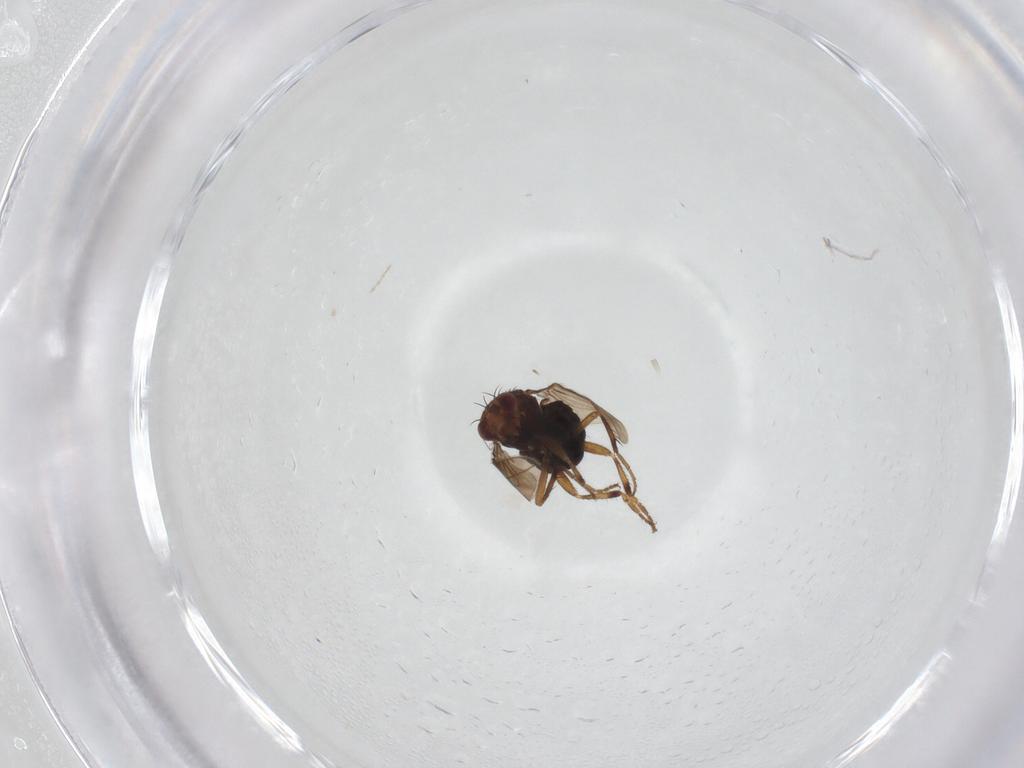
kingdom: Animalia
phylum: Arthropoda
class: Insecta
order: Diptera
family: Sphaeroceridae
